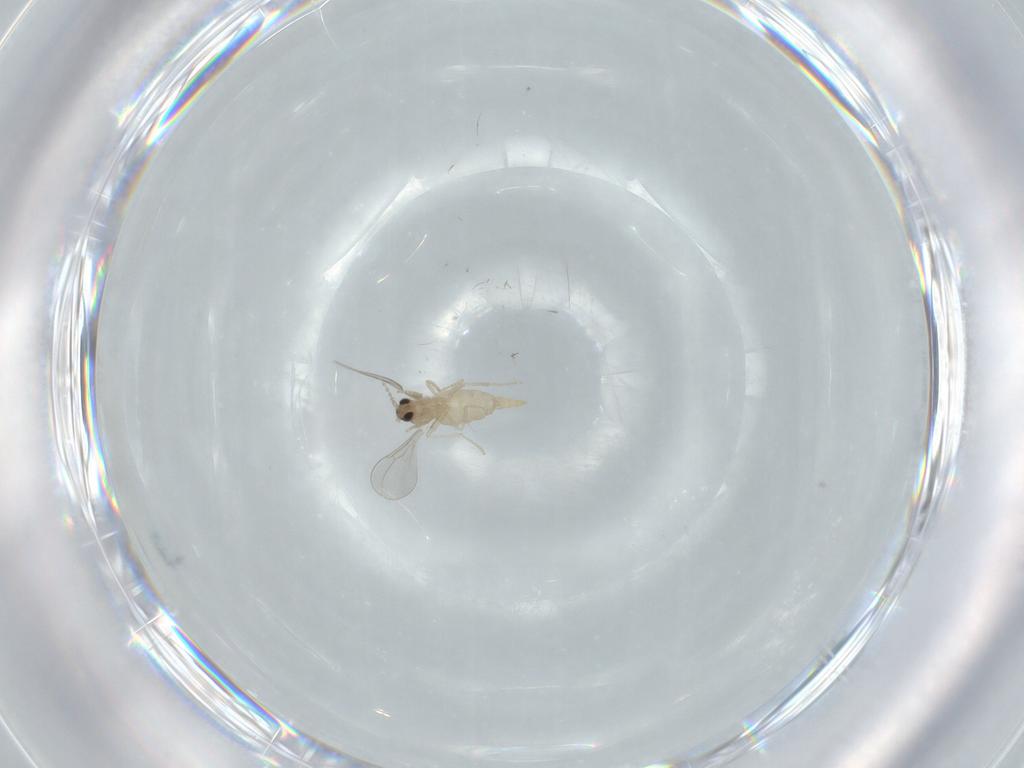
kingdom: Animalia
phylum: Arthropoda
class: Insecta
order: Diptera
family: Cecidomyiidae
